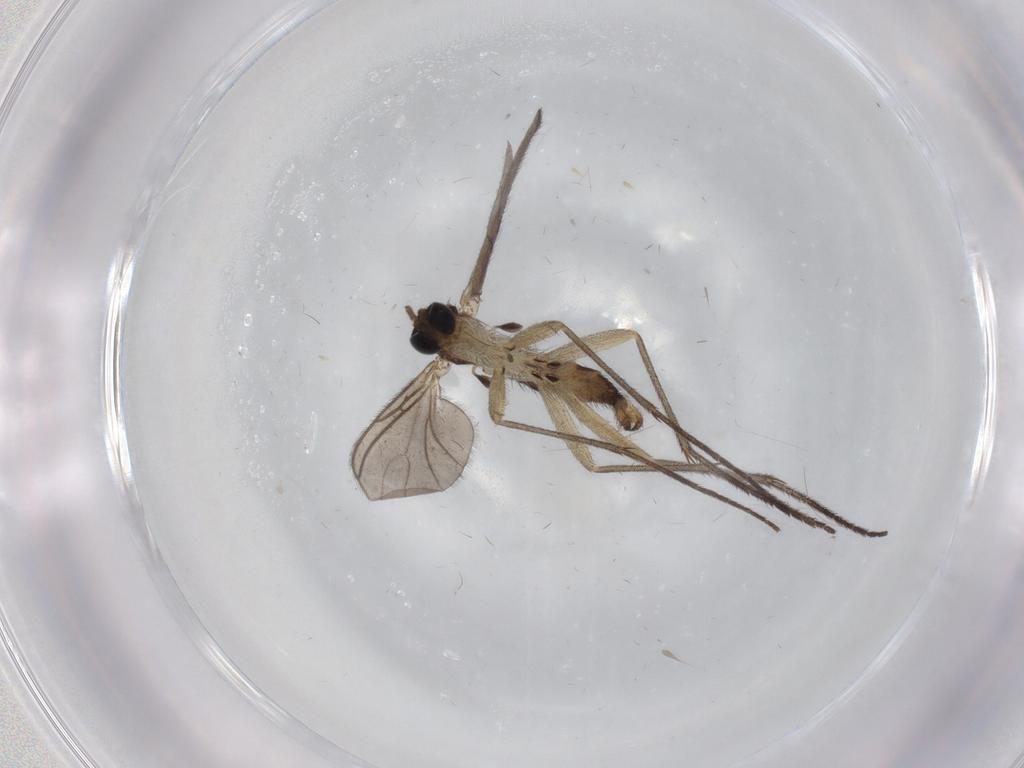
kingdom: Animalia
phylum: Arthropoda
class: Insecta
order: Diptera
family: Sciaridae
